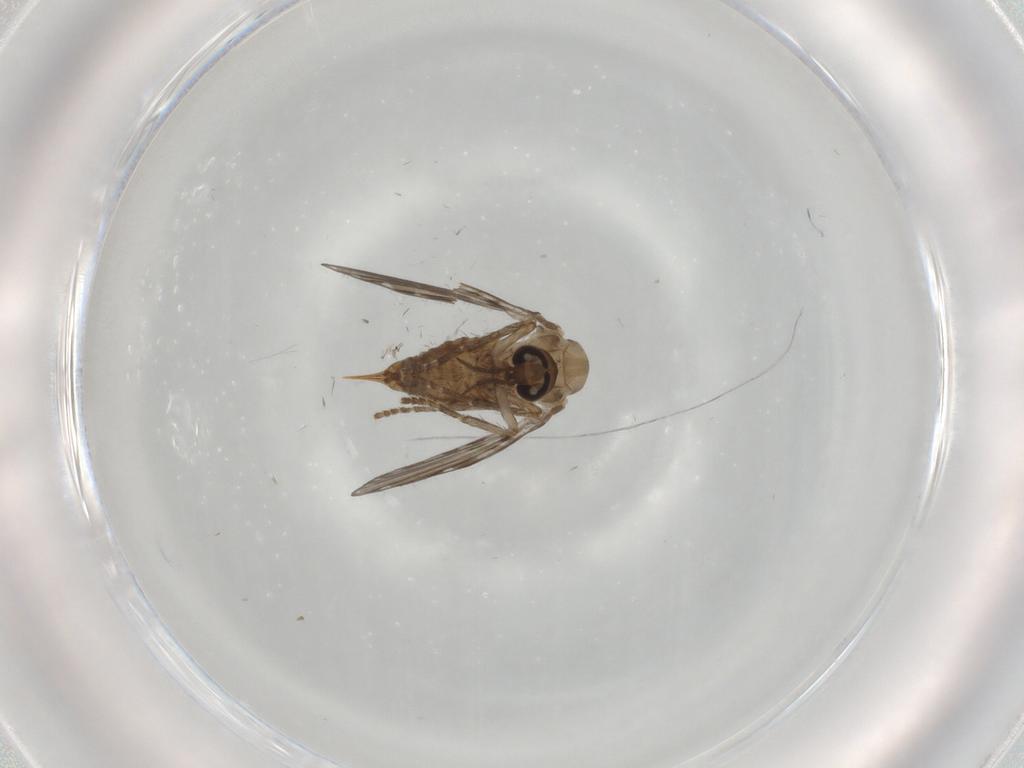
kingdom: Animalia
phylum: Arthropoda
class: Insecta
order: Diptera
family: Psychodidae
